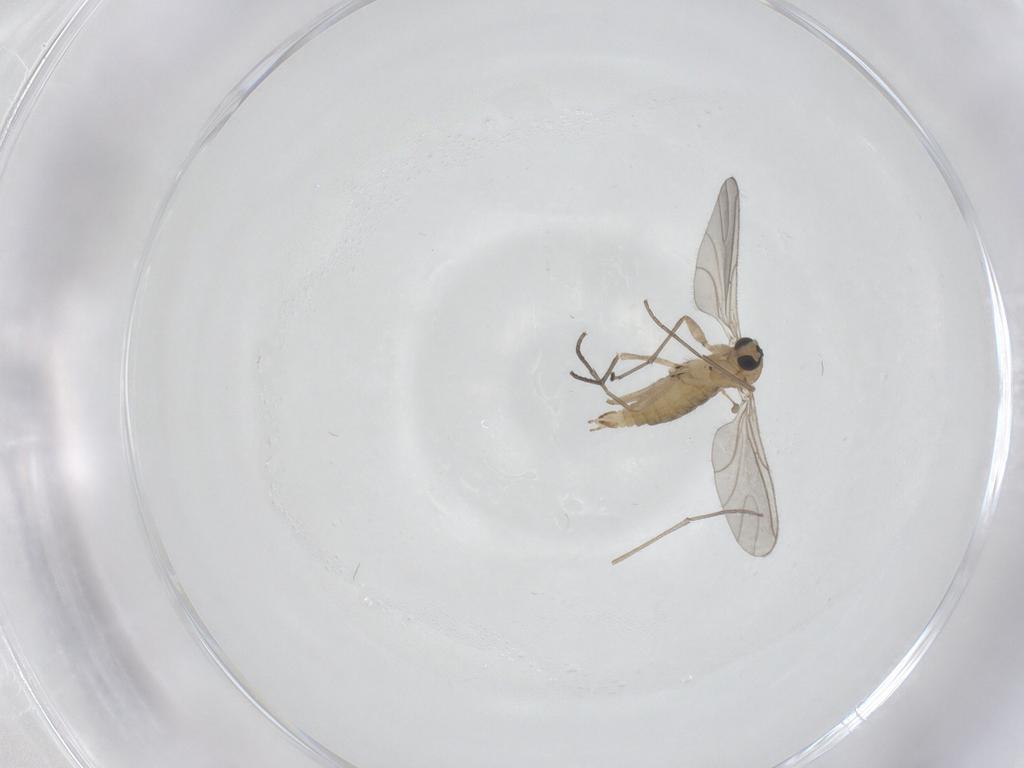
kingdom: Animalia
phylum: Arthropoda
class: Insecta
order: Diptera
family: Sciaridae
